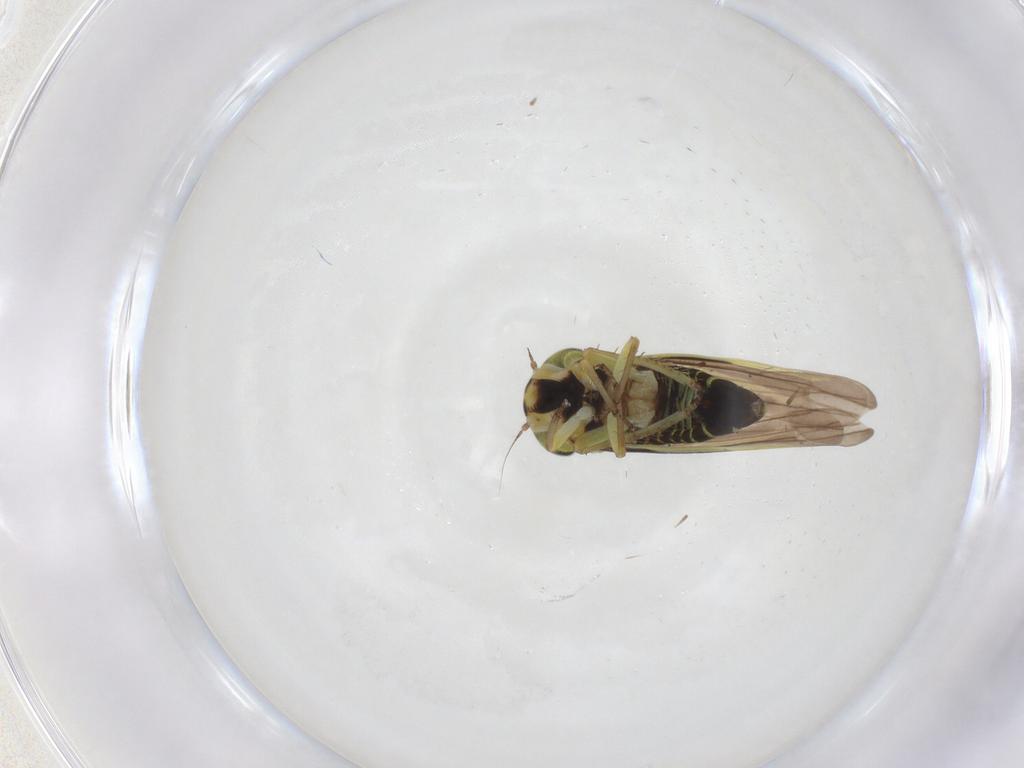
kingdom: Animalia
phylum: Arthropoda
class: Insecta
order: Hemiptera
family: Cicadellidae
